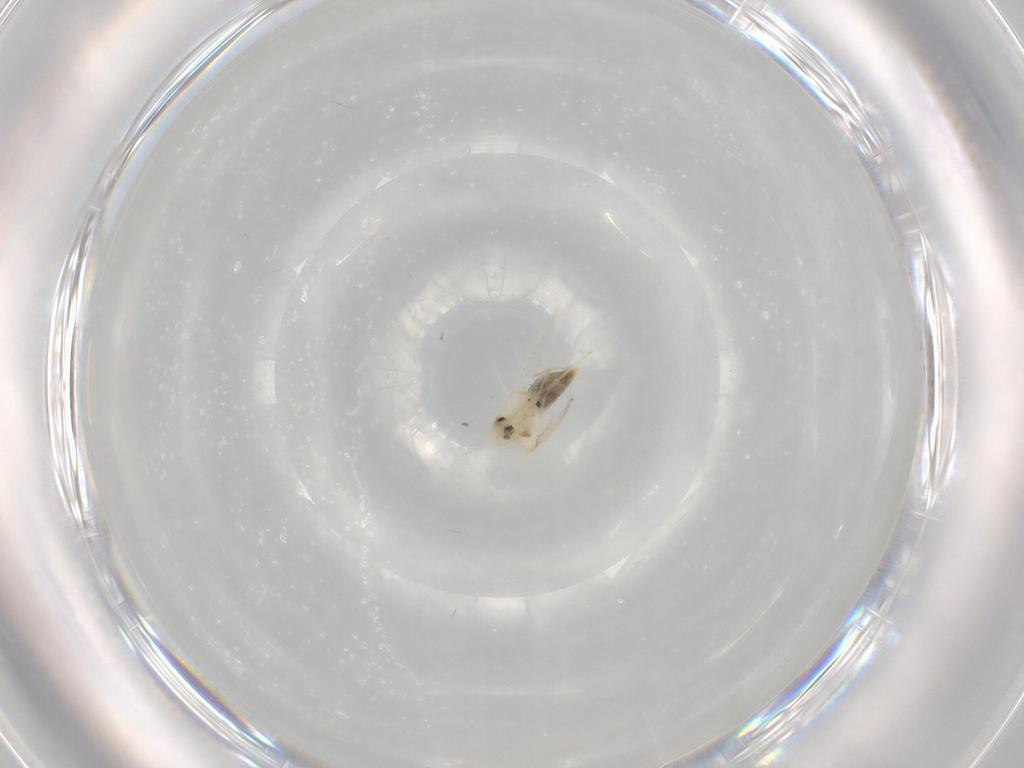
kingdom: Animalia
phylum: Arthropoda
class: Insecta
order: Hemiptera
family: Aleyrodidae
